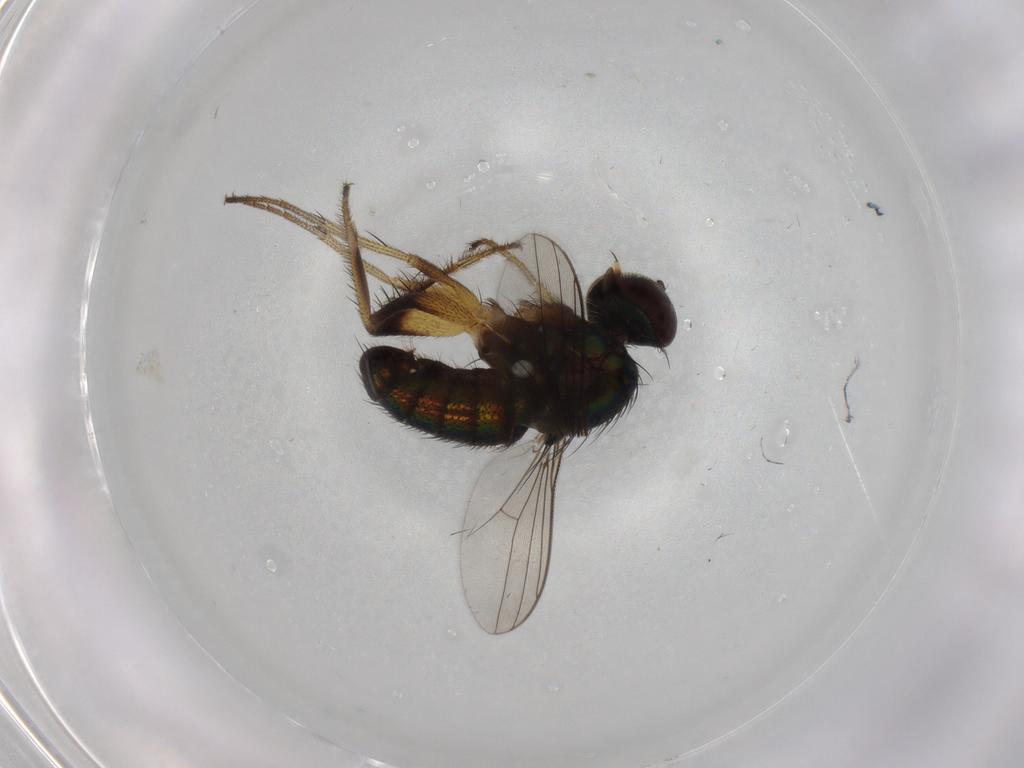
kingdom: Animalia
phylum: Arthropoda
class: Insecta
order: Diptera
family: Dolichopodidae
